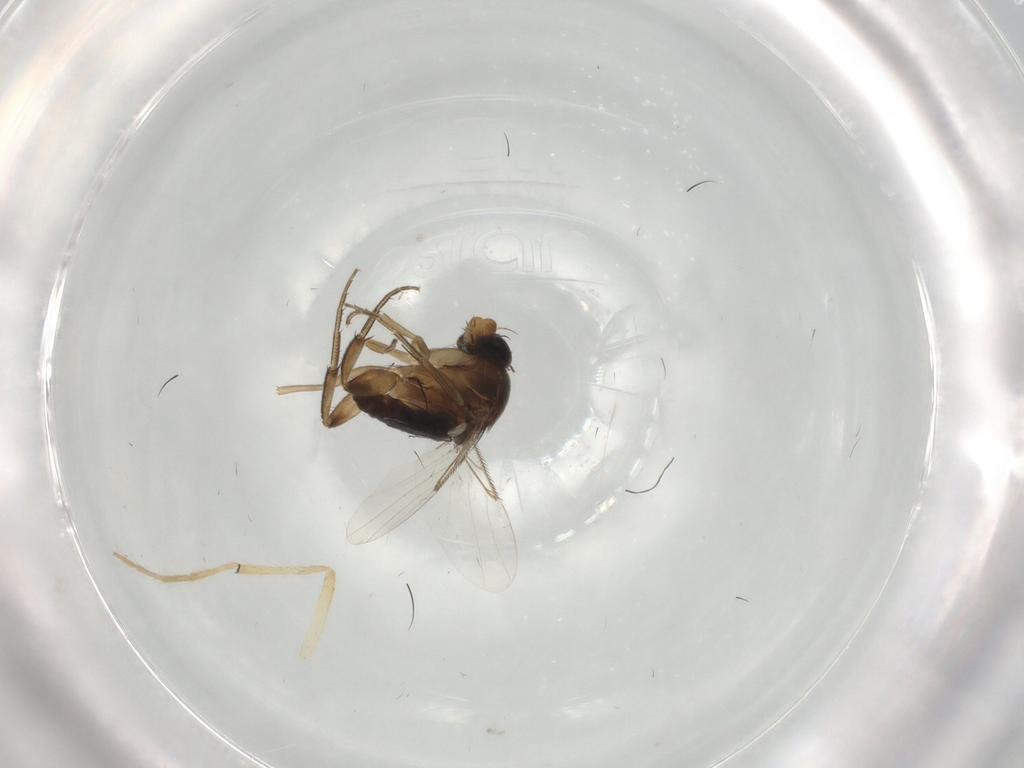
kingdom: Animalia
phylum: Arthropoda
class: Insecta
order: Diptera
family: Chironomidae
